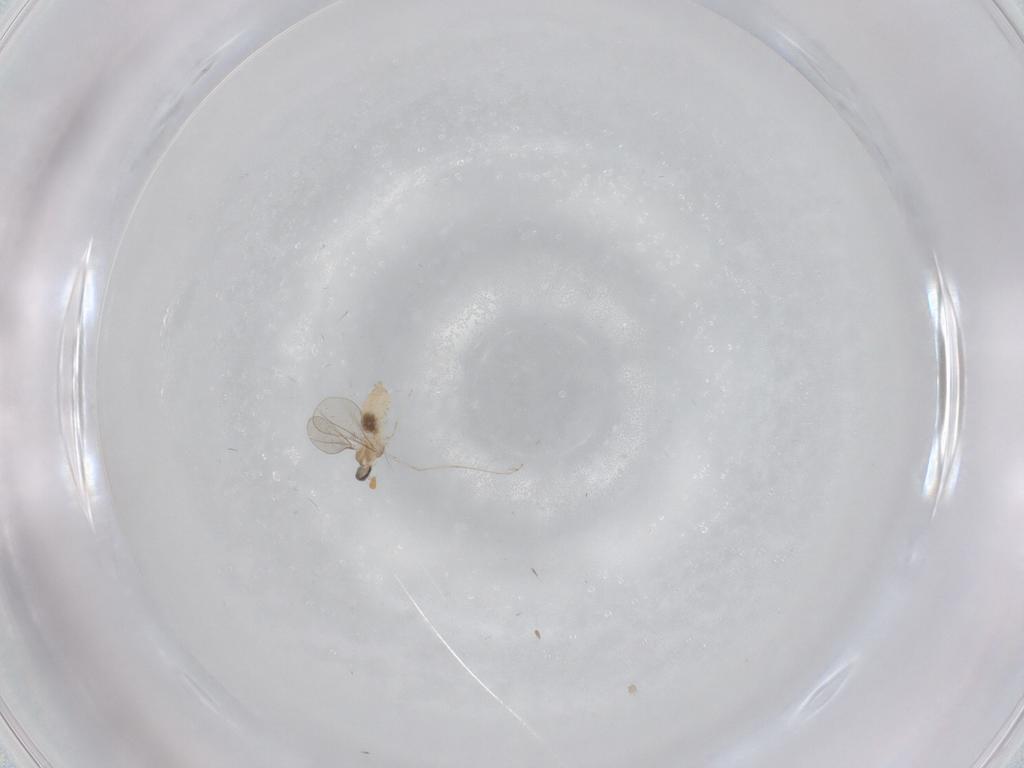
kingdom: Animalia
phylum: Arthropoda
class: Insecta
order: Diptera
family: Cecidomyiidae
